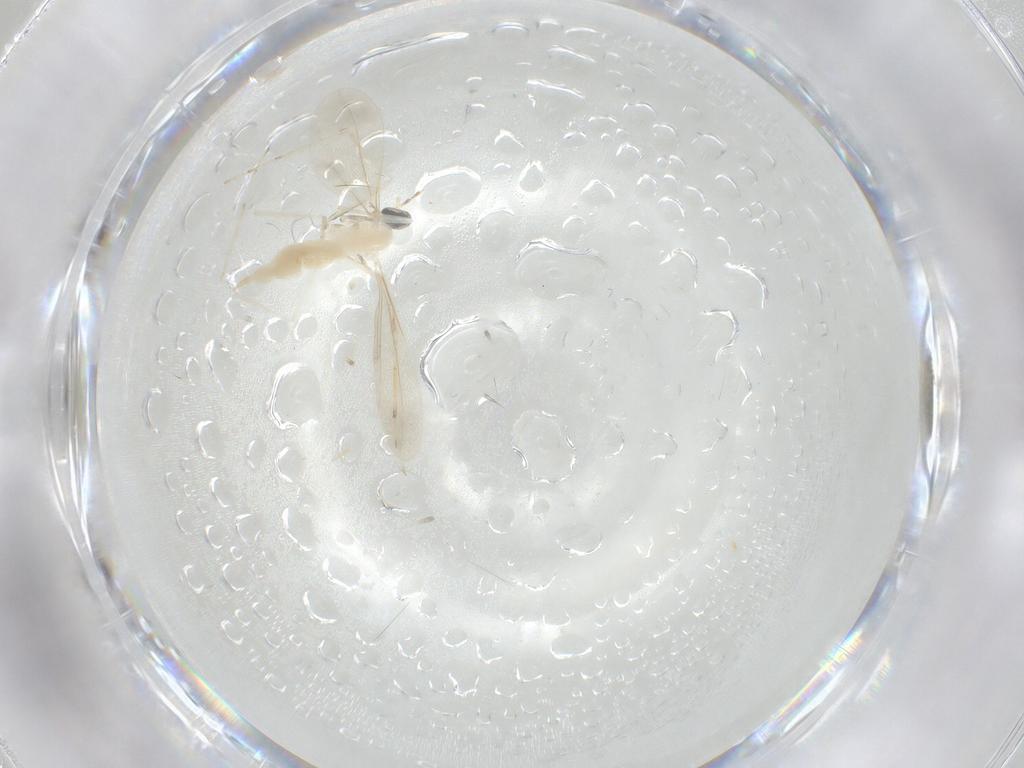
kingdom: Animalia
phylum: Arthropoda
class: Insecta
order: Diptera
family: Cecidomyiidae
